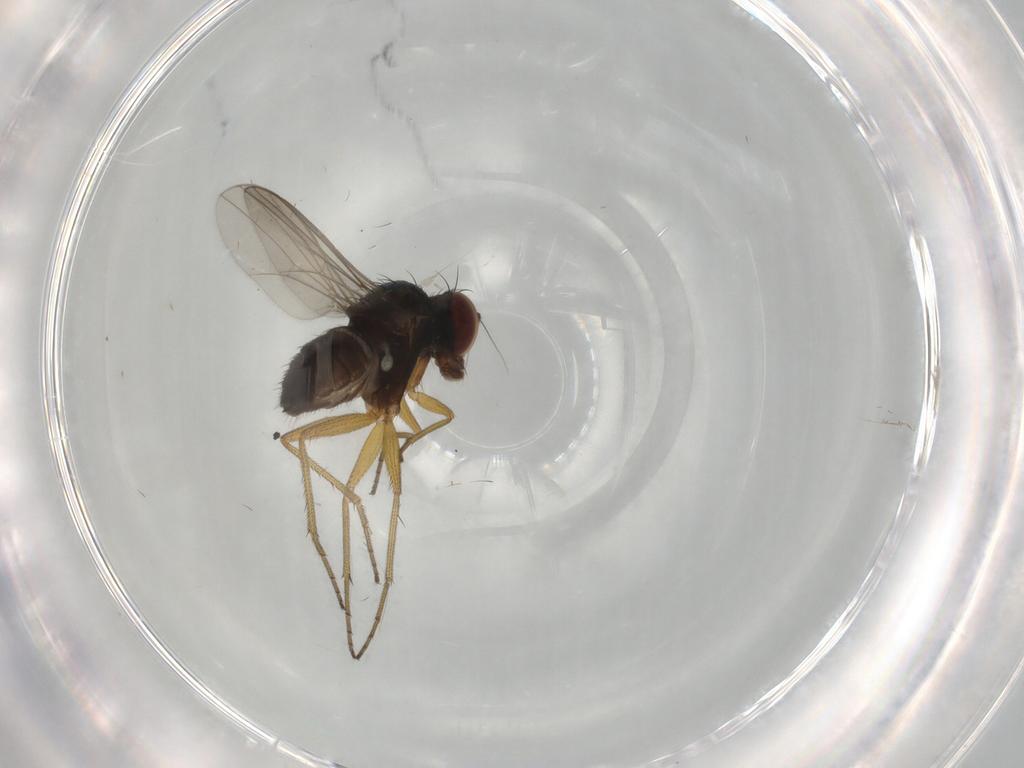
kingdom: Animalia
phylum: Arthropoda
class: Insecta
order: Diptera
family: Dolichopodidae
